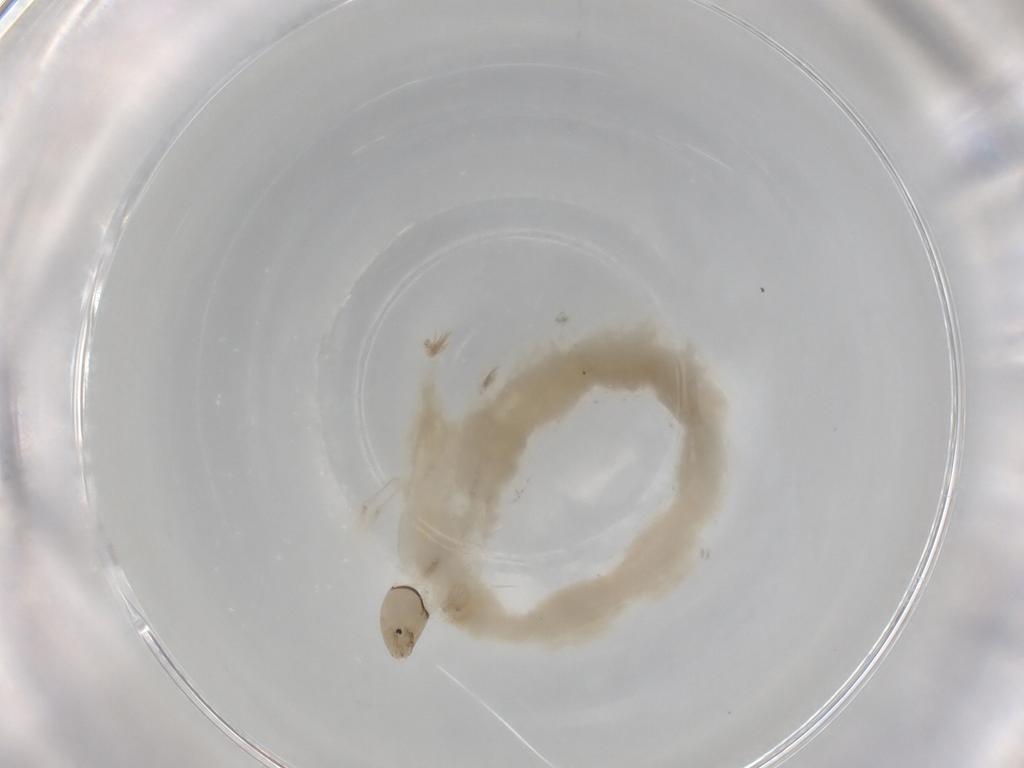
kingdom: Animalia
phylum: Arthropoda
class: Insecta
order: Diptera
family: Chironomidae
